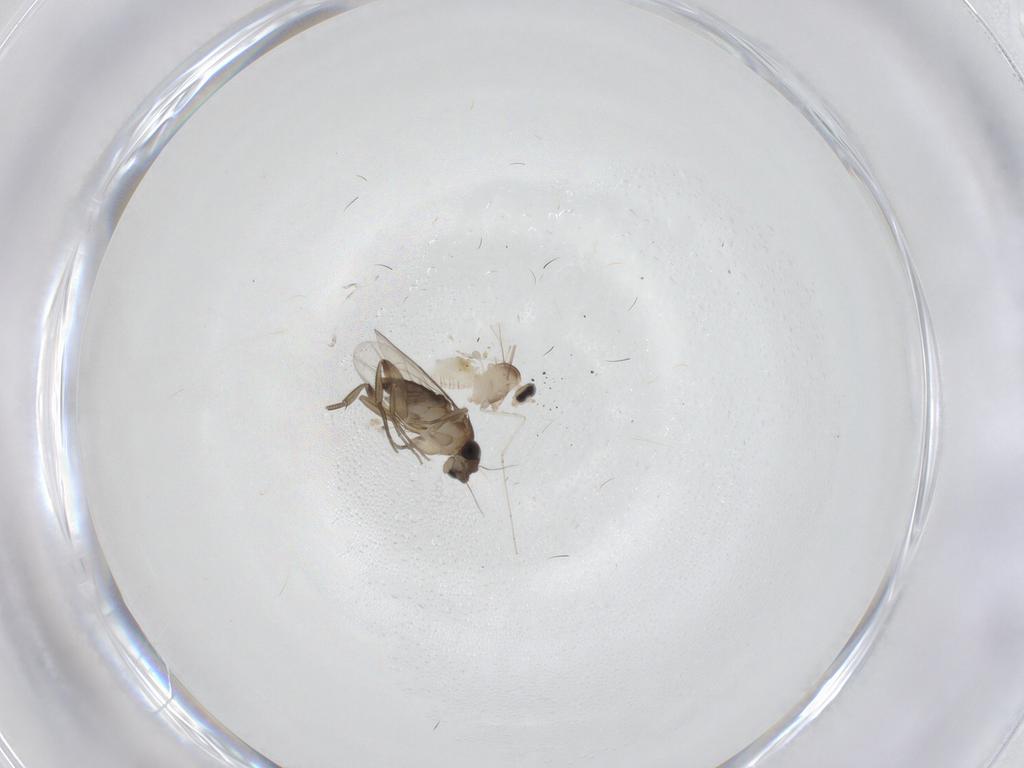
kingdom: Animalia
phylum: Arthropoda
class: Insecta
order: Diptera
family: Cecidomyiidae
